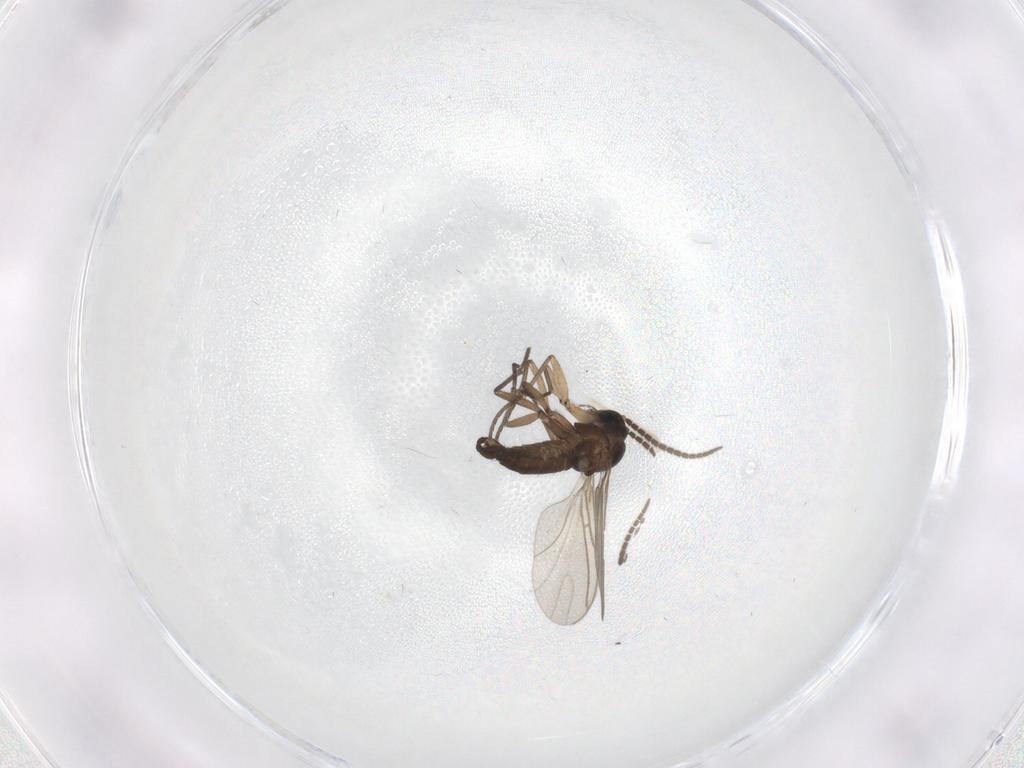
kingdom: Animalia
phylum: Arthropoda
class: Insecta
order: Diptera
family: Sciaridae
